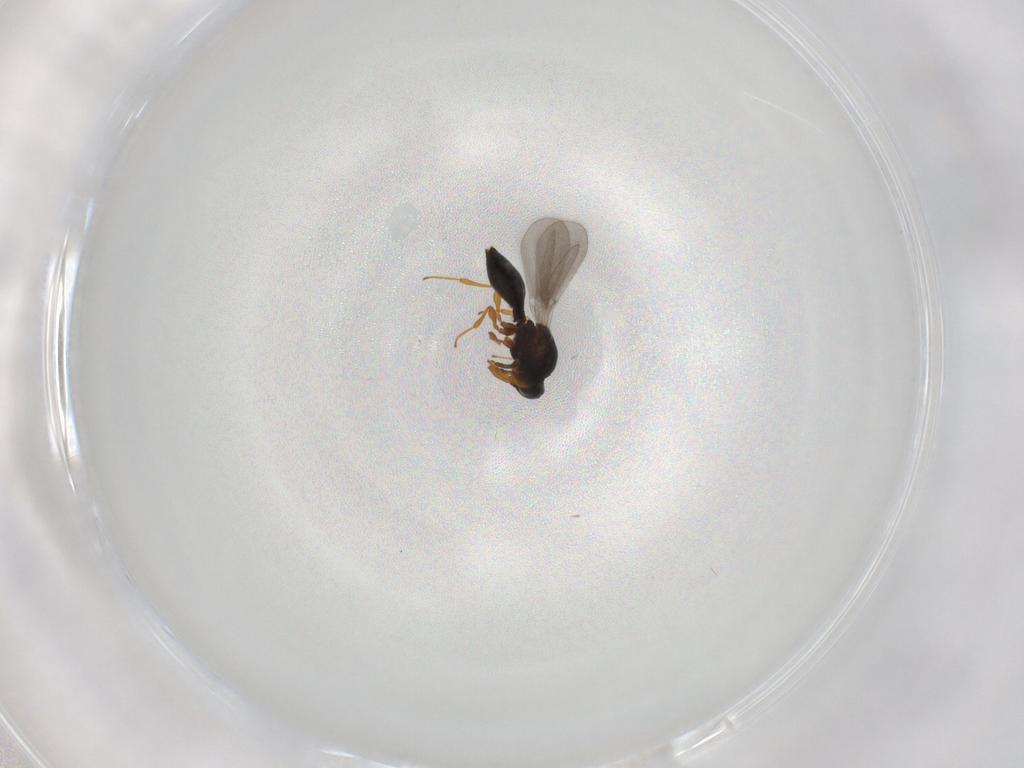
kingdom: Animalia
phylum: Arthropoda
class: Insecta
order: Hymenoptera
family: Platygastridae
